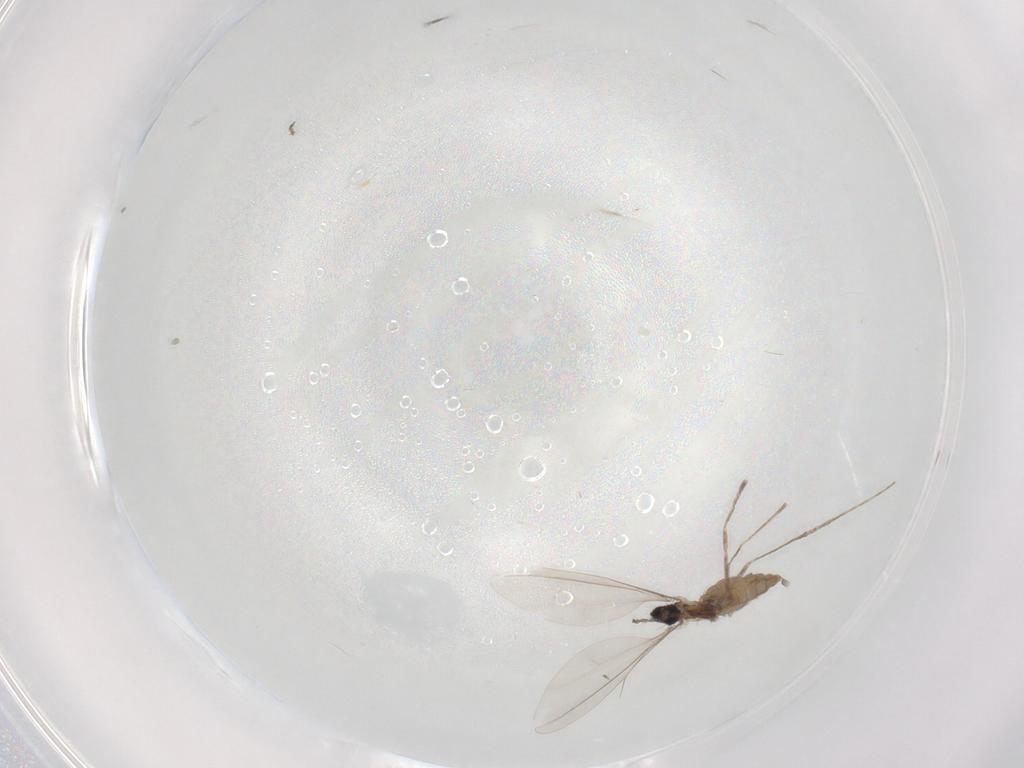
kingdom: Animalia
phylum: Arthropoda
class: Insecta
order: Diptera
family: Cecidomyiidae
